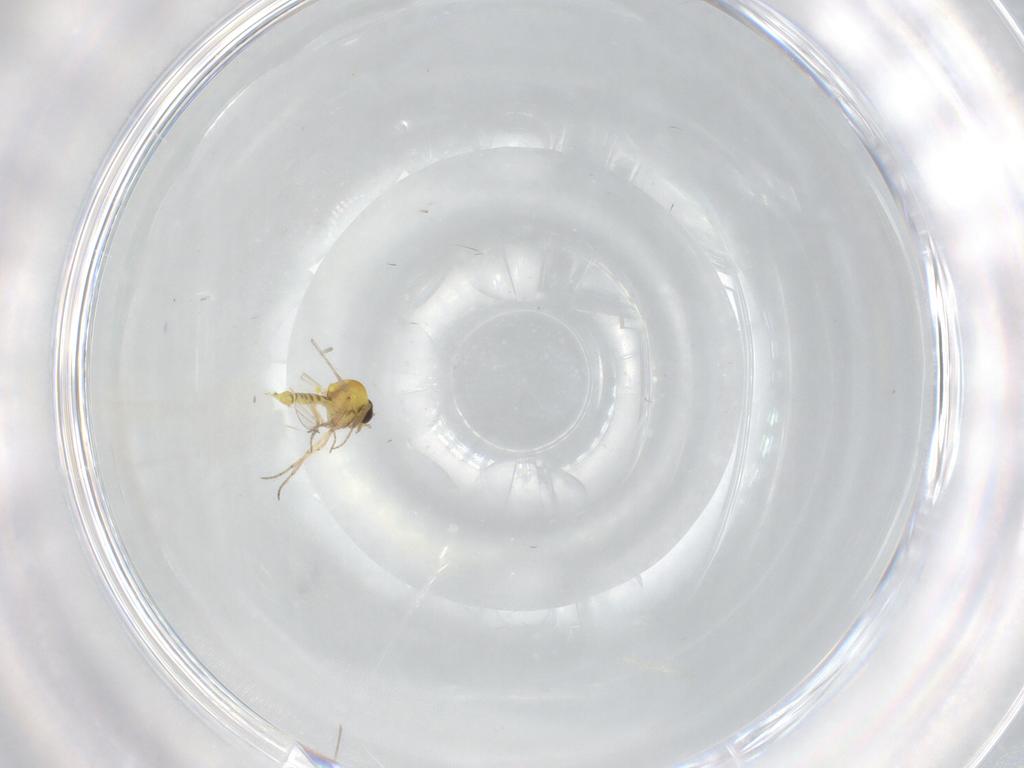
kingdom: Animalia
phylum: Arthropoda
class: Insecta
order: Diptera
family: Ceratopogonidae
